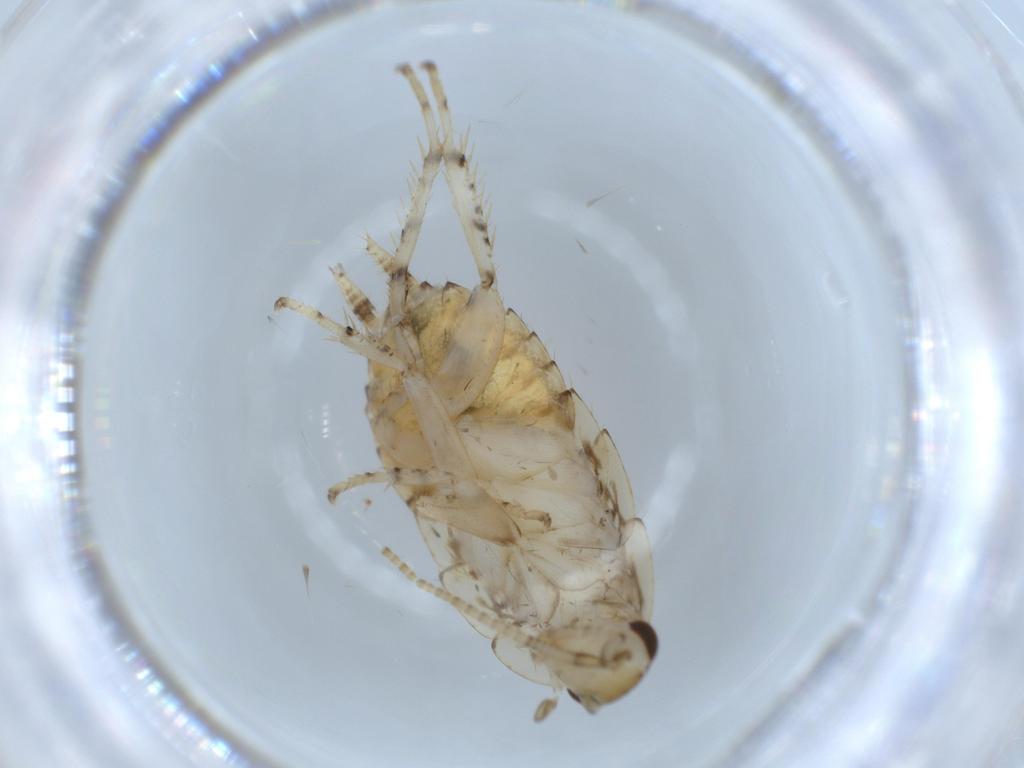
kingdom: Animalia
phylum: Arthropoda
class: Insecta
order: Blattodea
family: Ectobiidae
